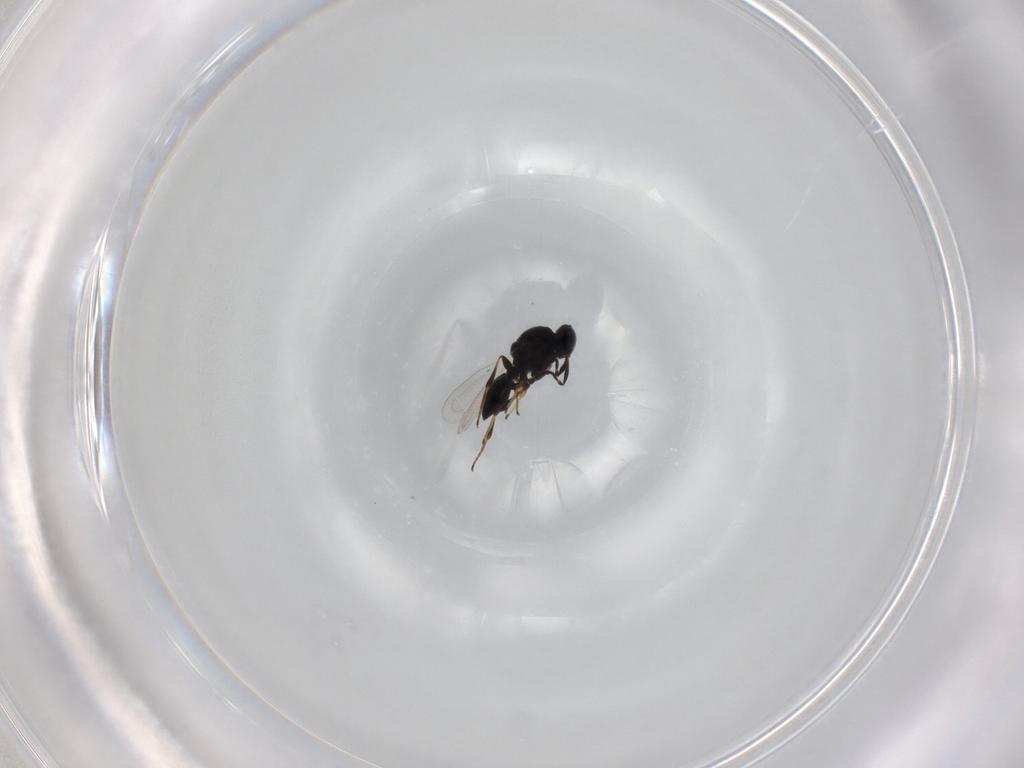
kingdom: Animalia
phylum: Arthropoda
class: Insecta
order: Hymenoptera
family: Platygastridae
